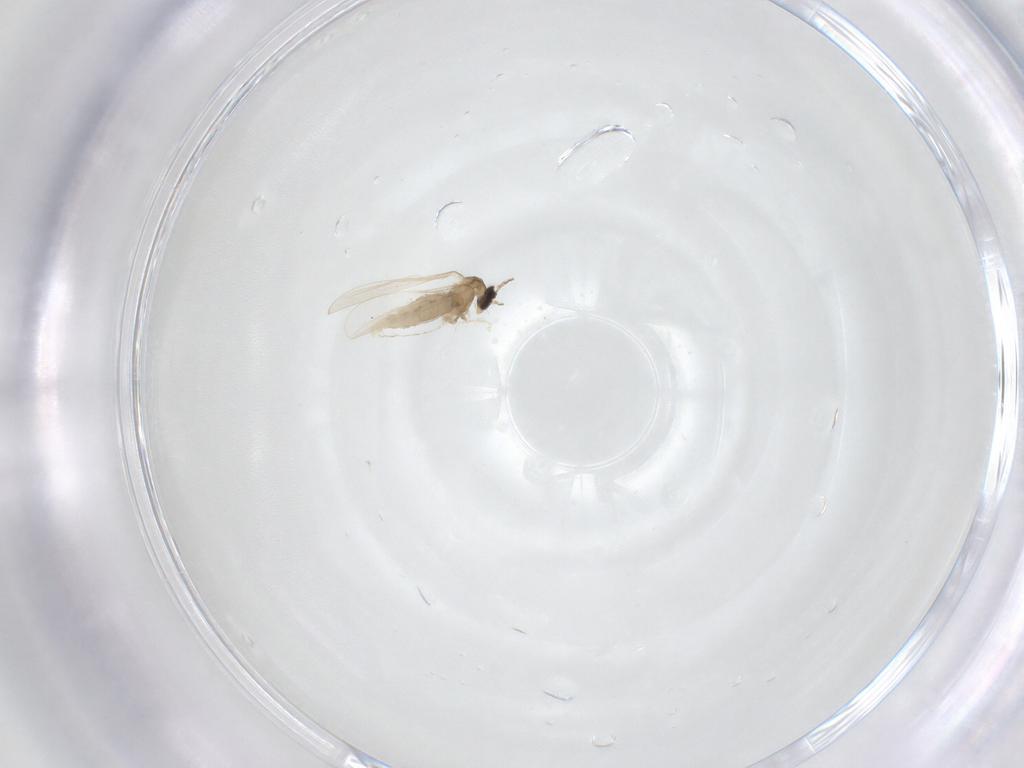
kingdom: Animalia
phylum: Arthropoda
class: Insecta
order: Diptera
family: Cecidomyiidae
